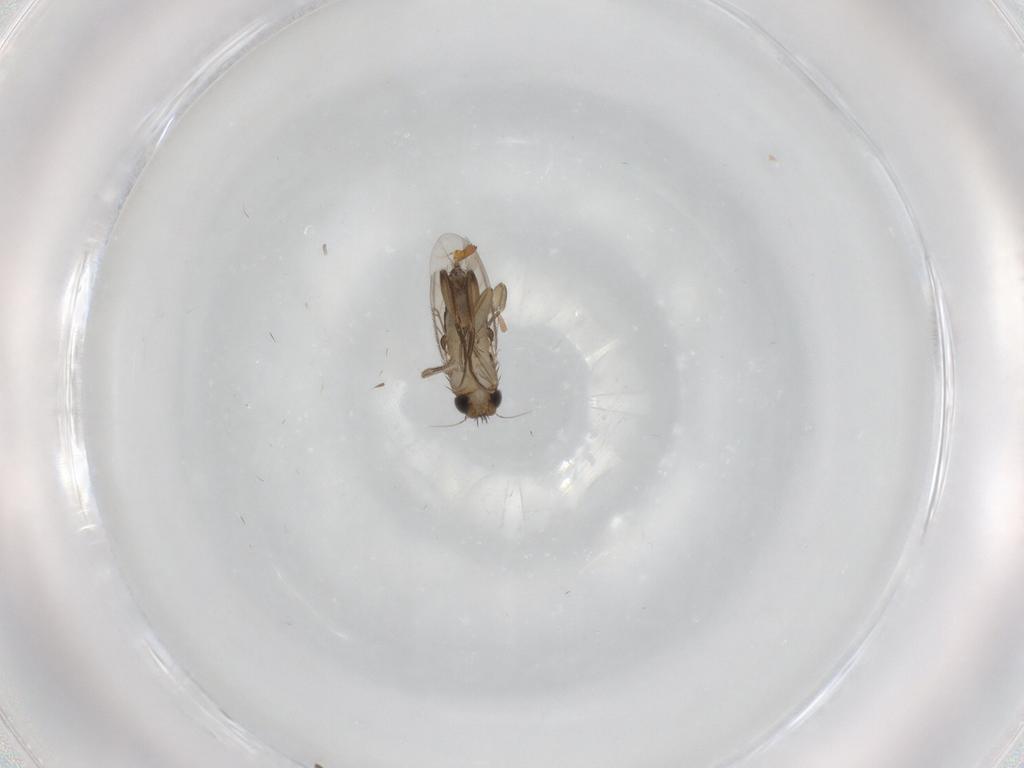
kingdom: Animalia
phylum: Arthropoda
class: Insecta
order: Diptera
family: Phoridae
